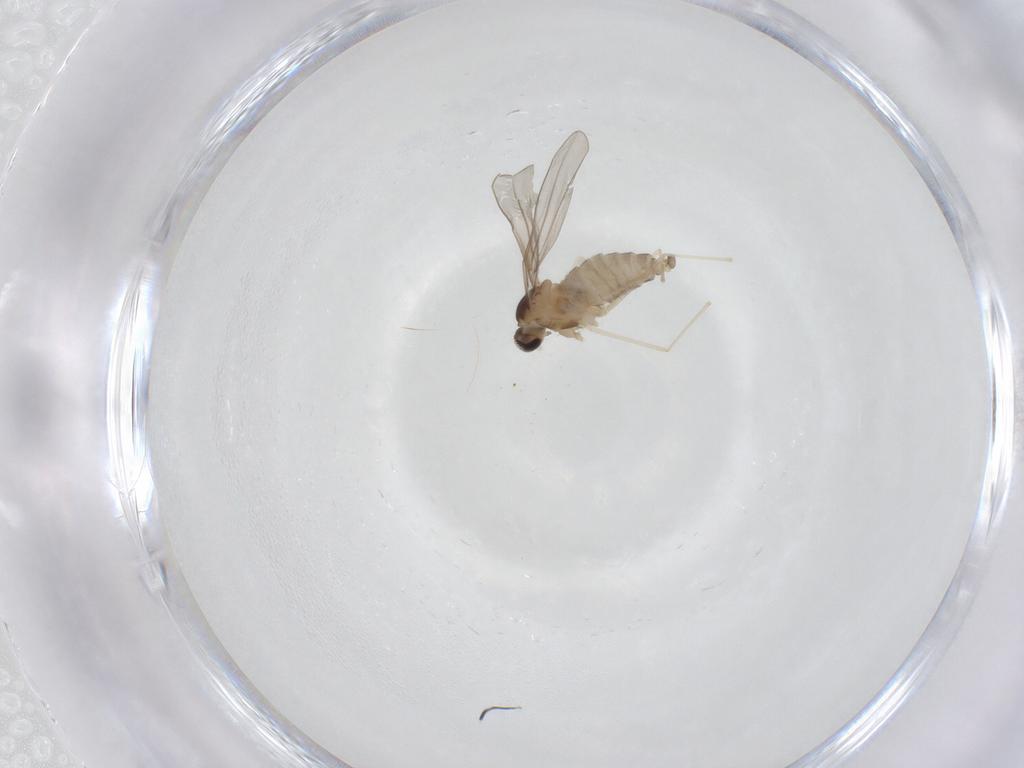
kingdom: Animalia
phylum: Arthropoda
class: Insecta
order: Diptera
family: Cecidomyiidae
